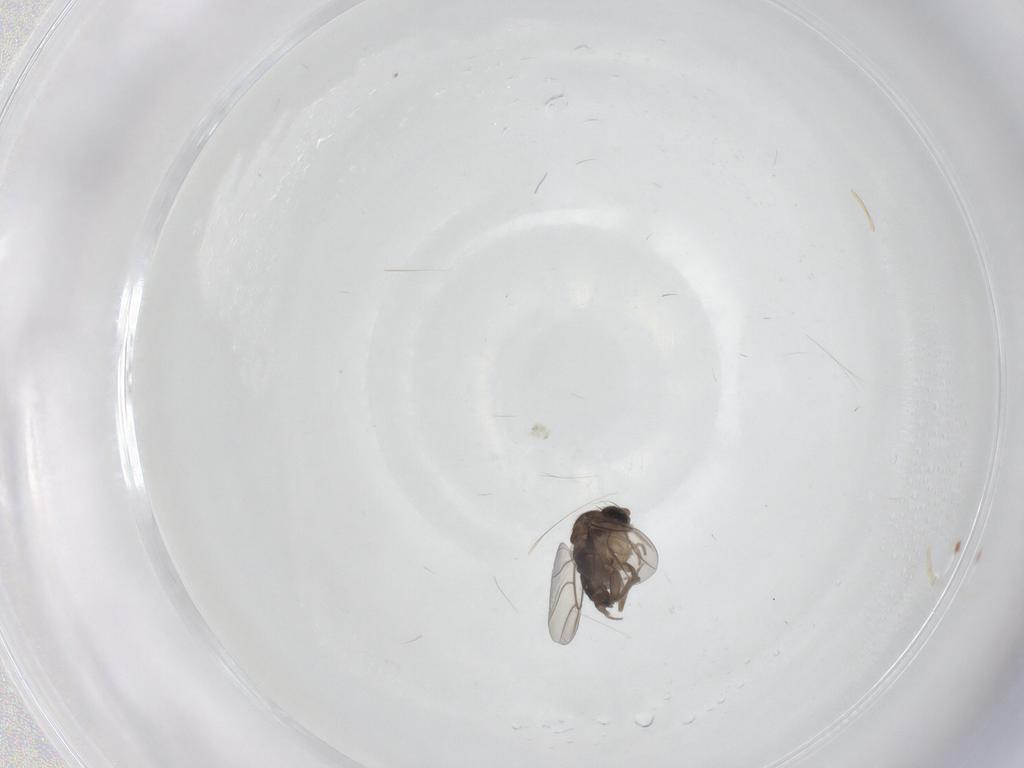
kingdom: Animalia
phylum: Arthropoda
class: Insecta
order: Diptera
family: Phoridae
